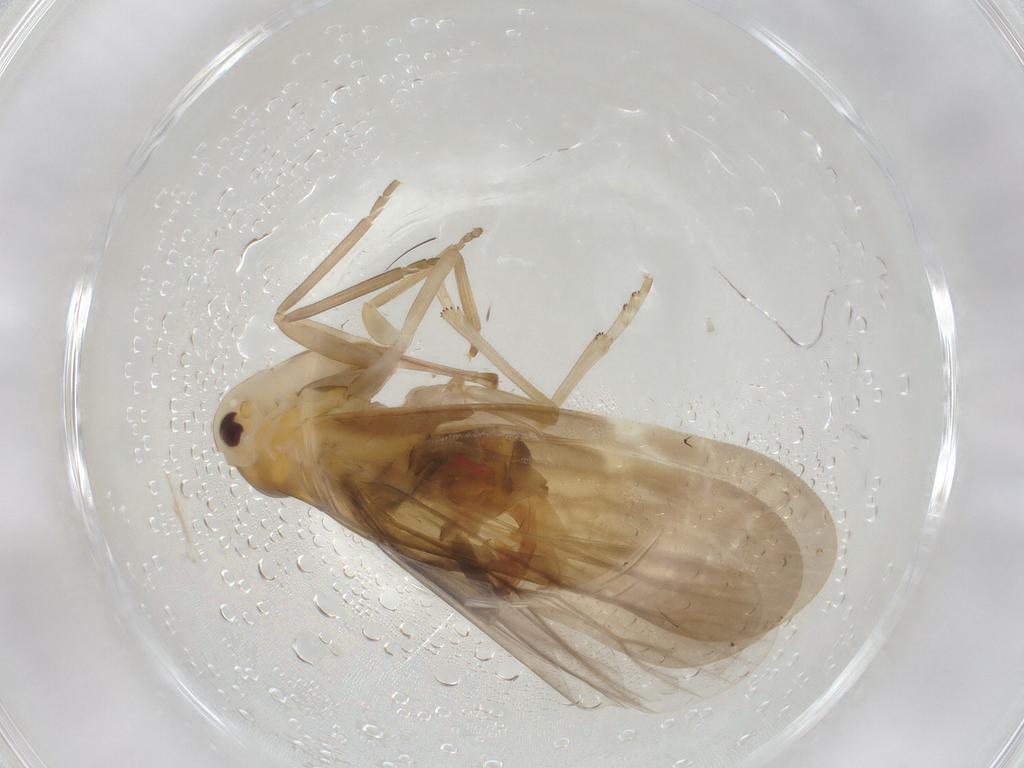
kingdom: Animalia
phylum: Arthropoda
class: Insecta
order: Hemiptera
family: Derbidae
